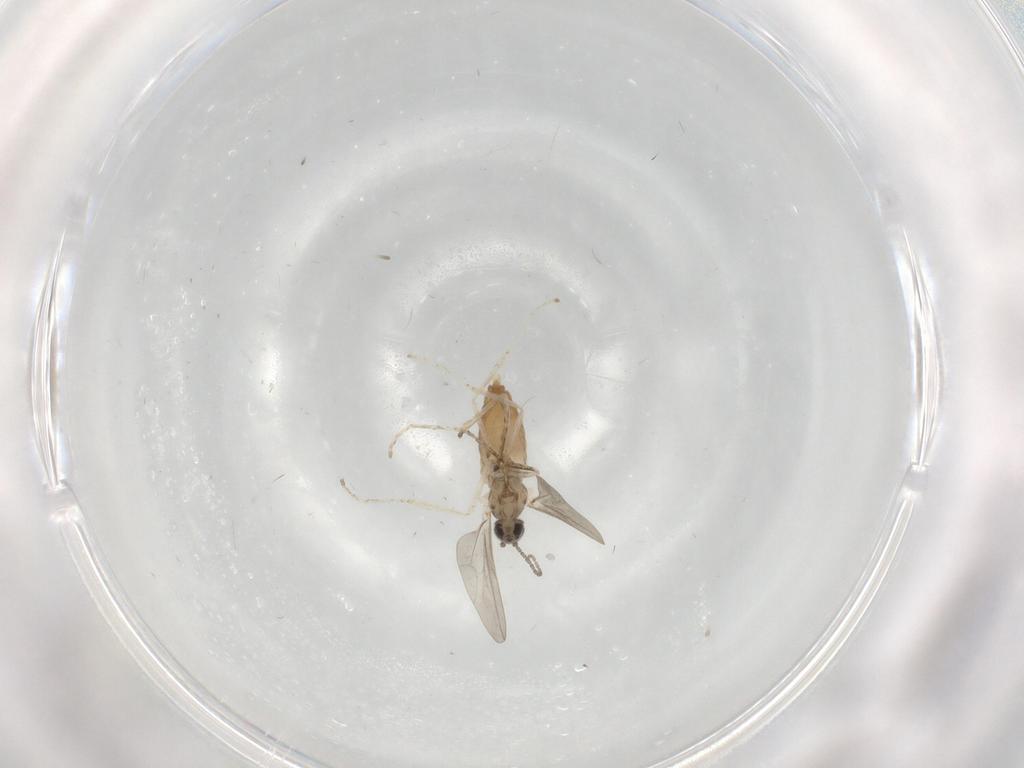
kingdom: Animalia
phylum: Arthropoda
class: Insecta
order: Diptera
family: Cecidomyiidae
